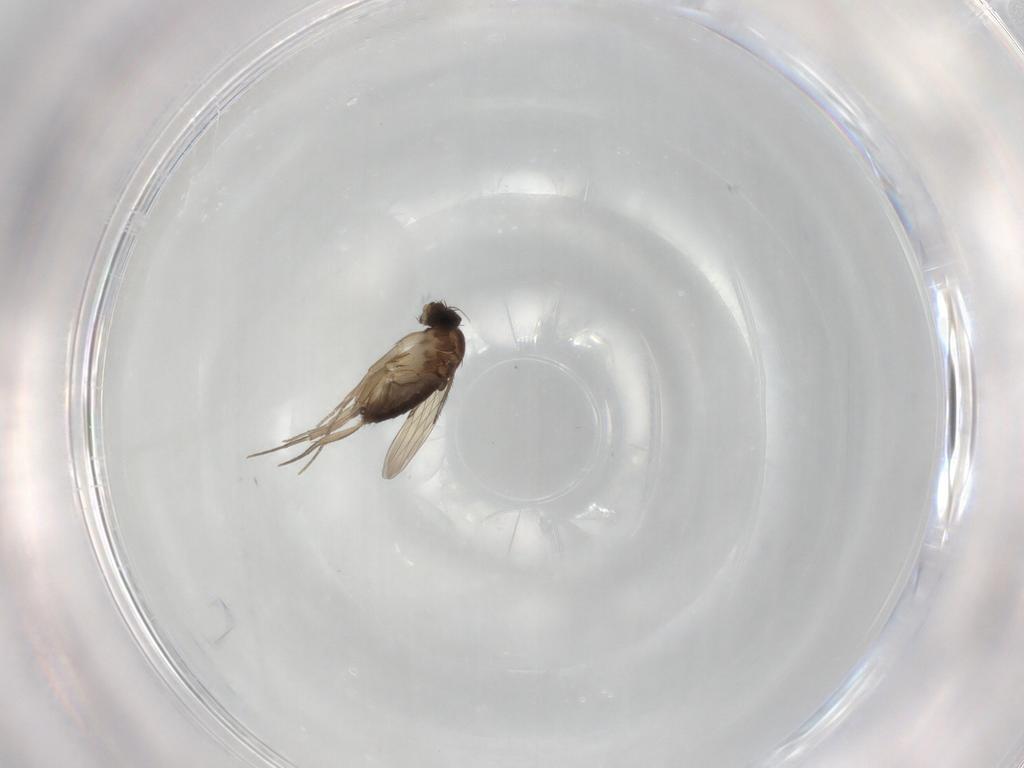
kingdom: Animalia
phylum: Arthropoda
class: Insecta
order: Diptera
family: Phoridae
